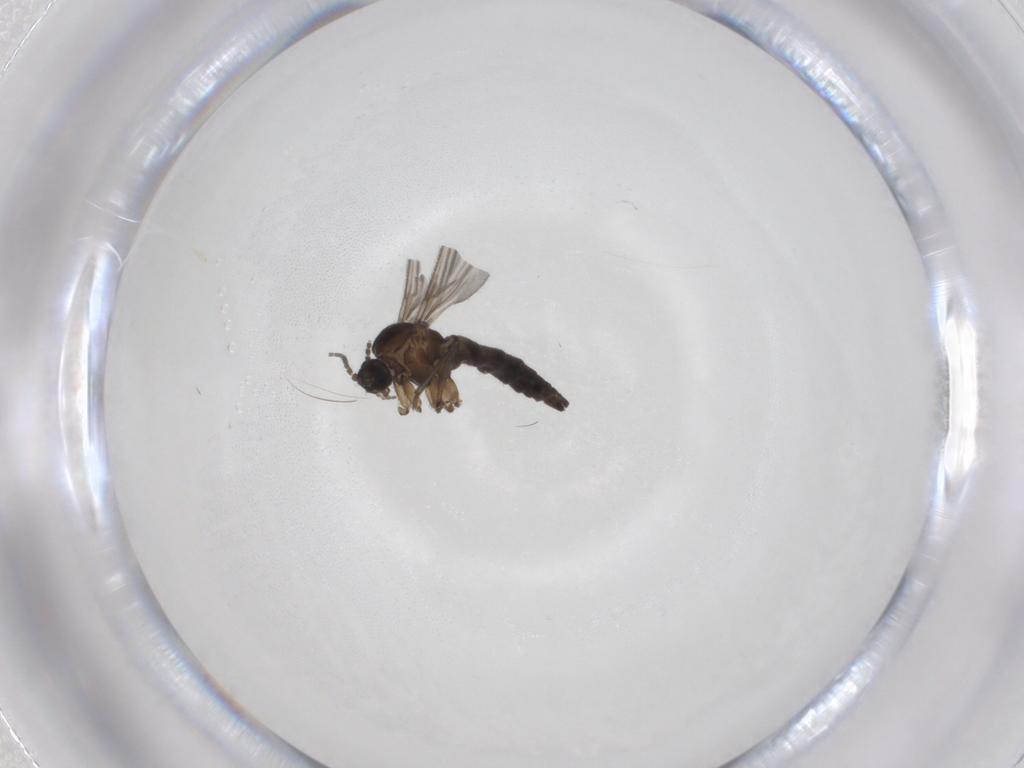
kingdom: Animalia
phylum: Arthropoda
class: Insecta
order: Diptera
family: Sciaridae
